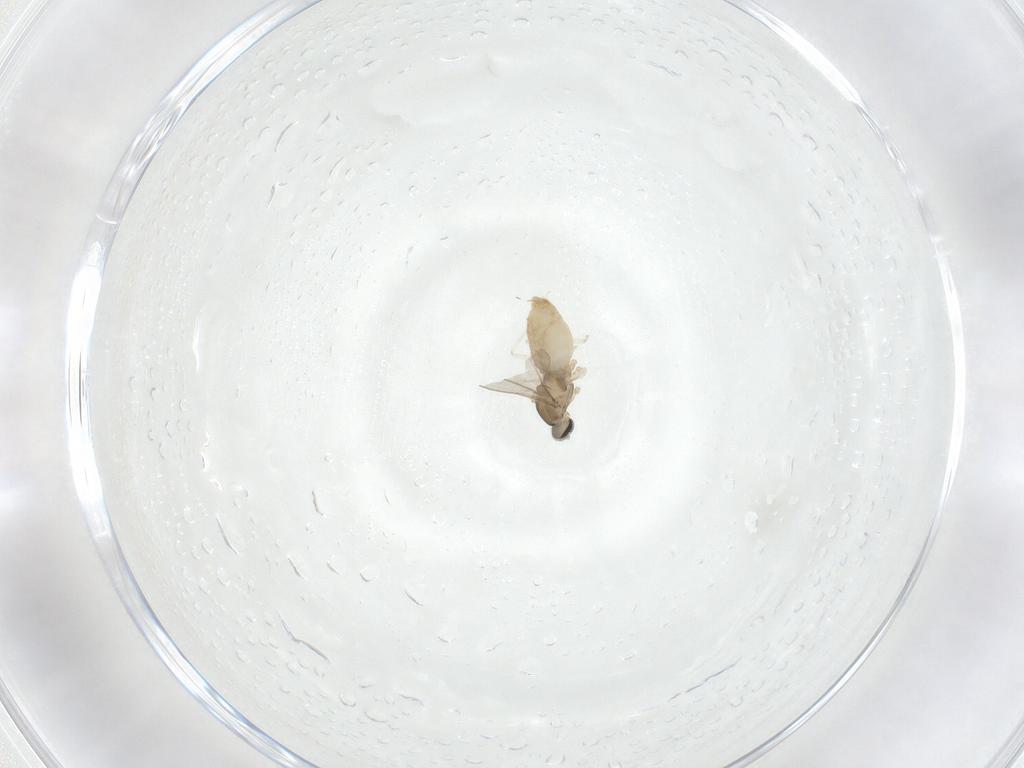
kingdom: Animalia
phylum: Arthropoda
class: Insecta
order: Diptera
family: Cecidomyiidae
